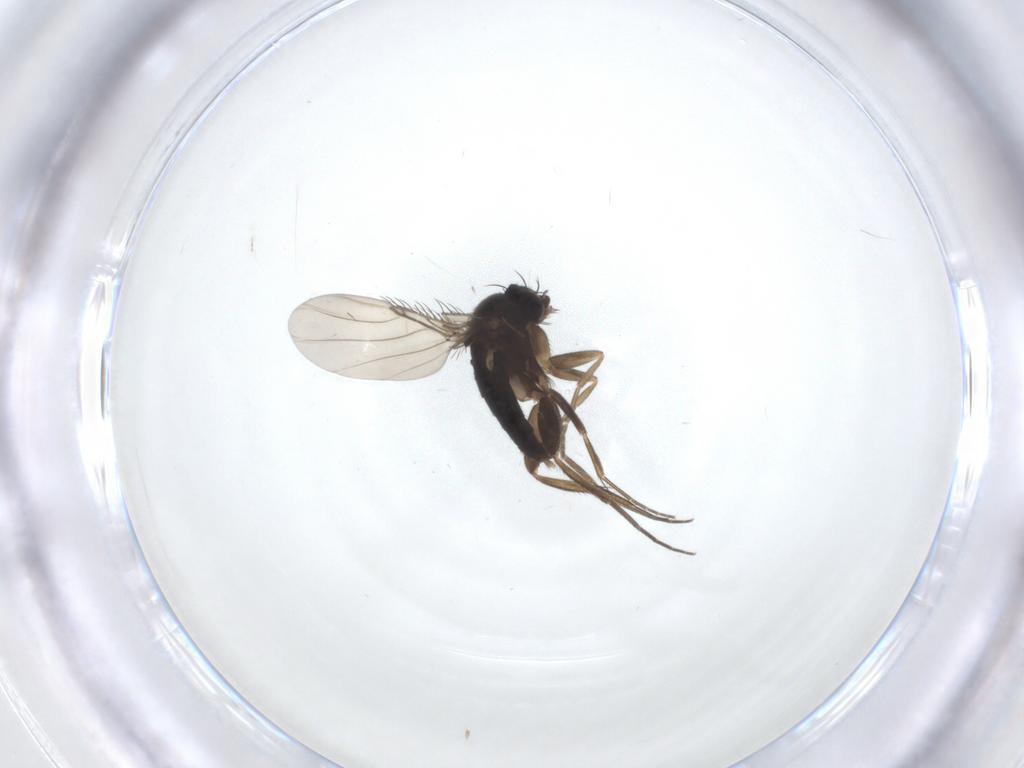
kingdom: Animalia
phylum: Arthropoda
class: Insecta
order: Diptera
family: Phoridae
